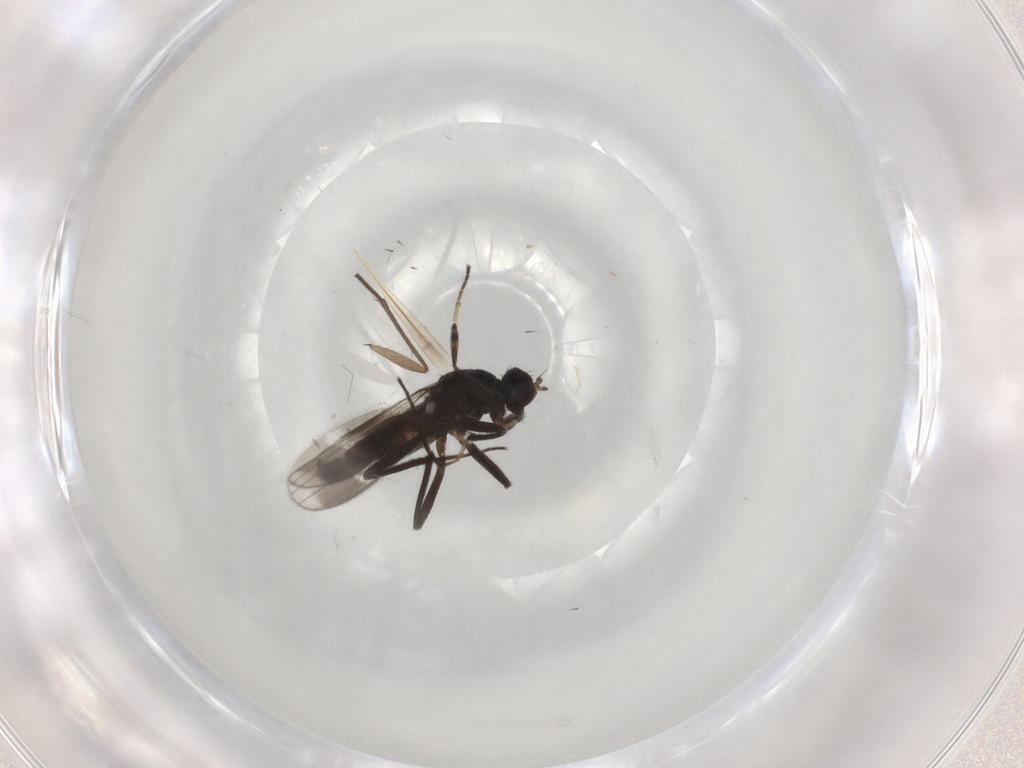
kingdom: Animalia
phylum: Arthropoda
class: Insecta
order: Diptera
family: Hybotidae
